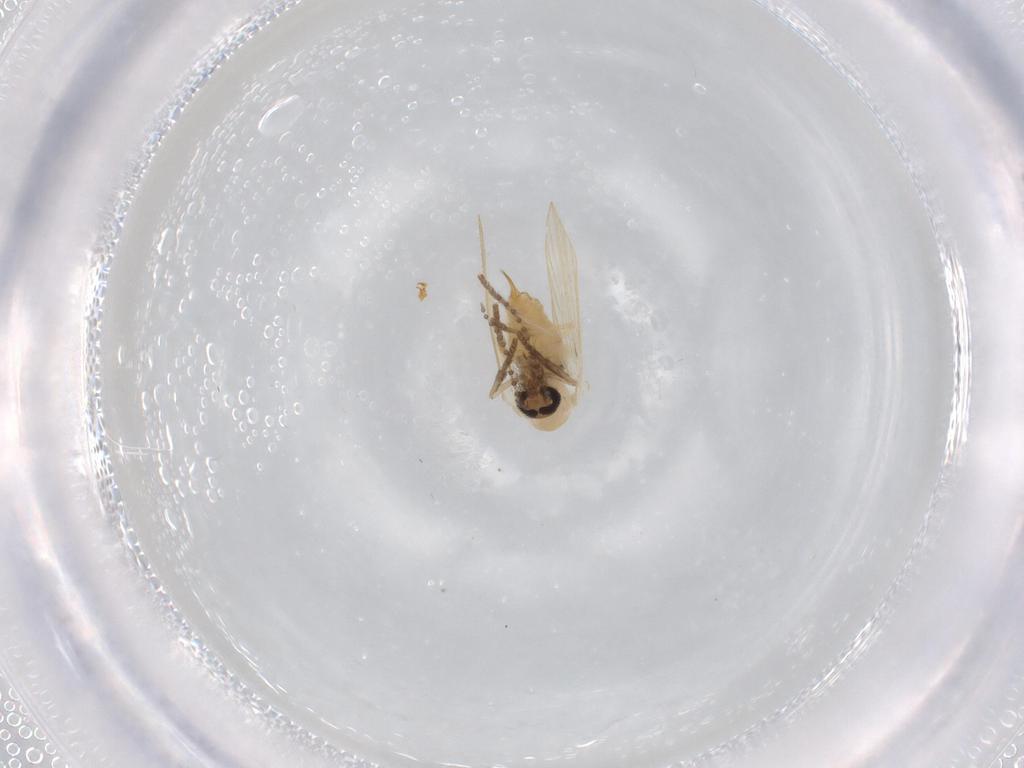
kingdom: Animalia
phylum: Arthropoda
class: Insecta
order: Diptera
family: Psychodidae
